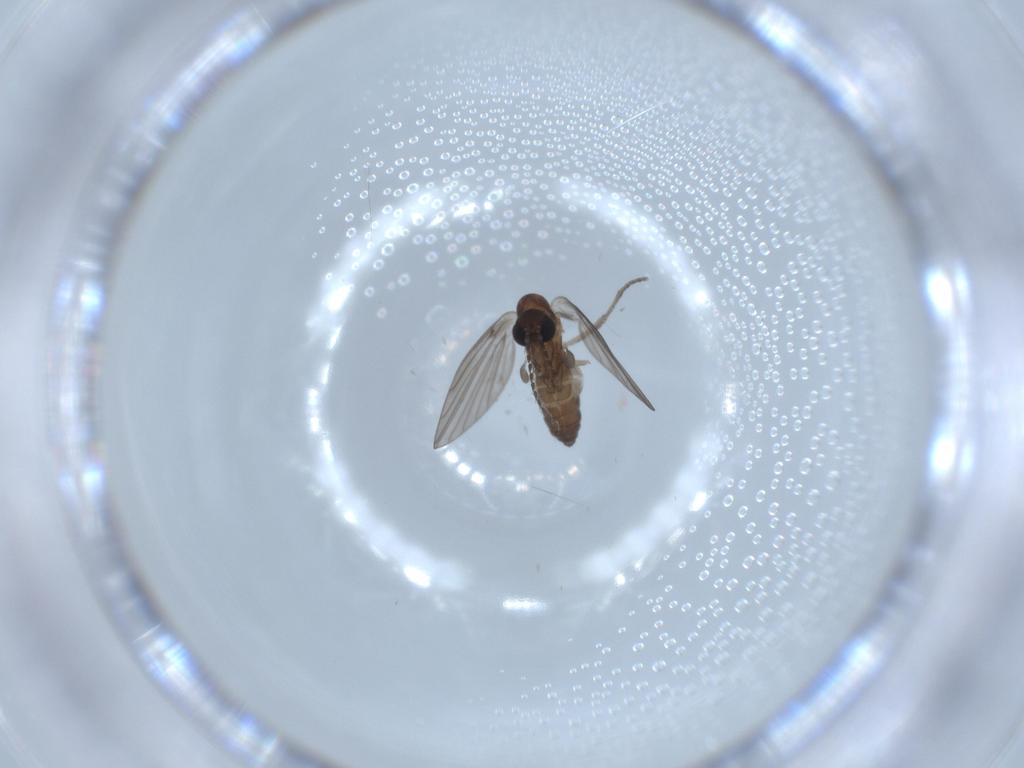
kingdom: Animalia
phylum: Arthropoda
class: Insecta
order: Diptera
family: Psychodidae
